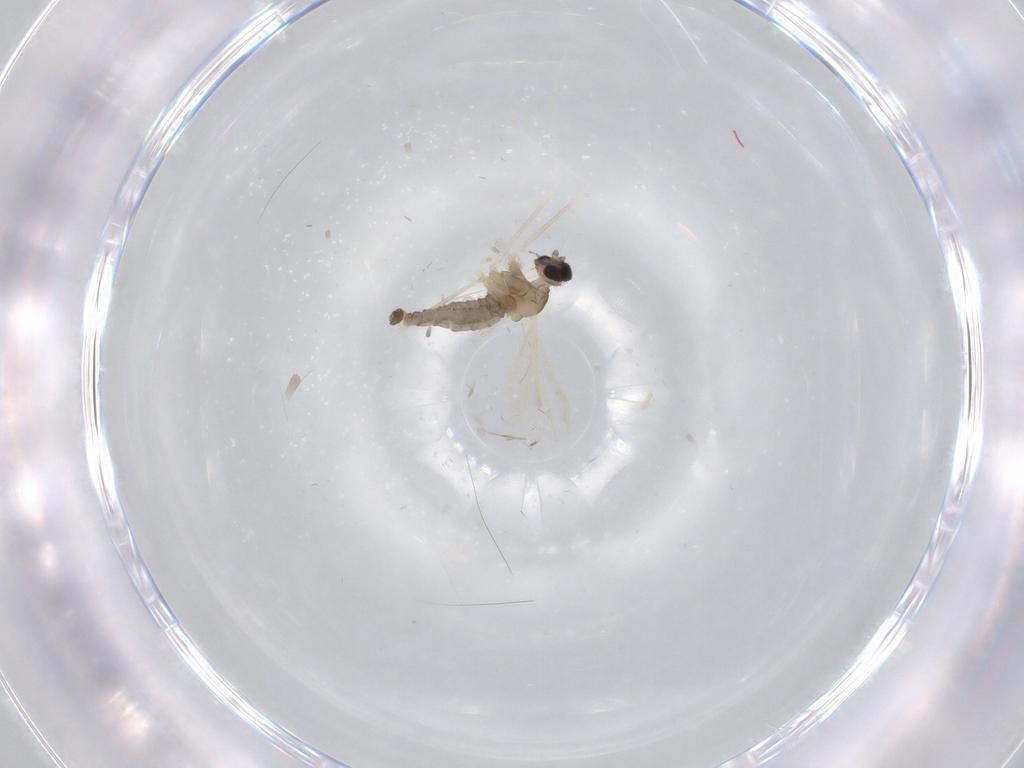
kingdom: Animalia
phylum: Arthropoda
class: Insecta
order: Diptera
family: Cecidomyiidae
